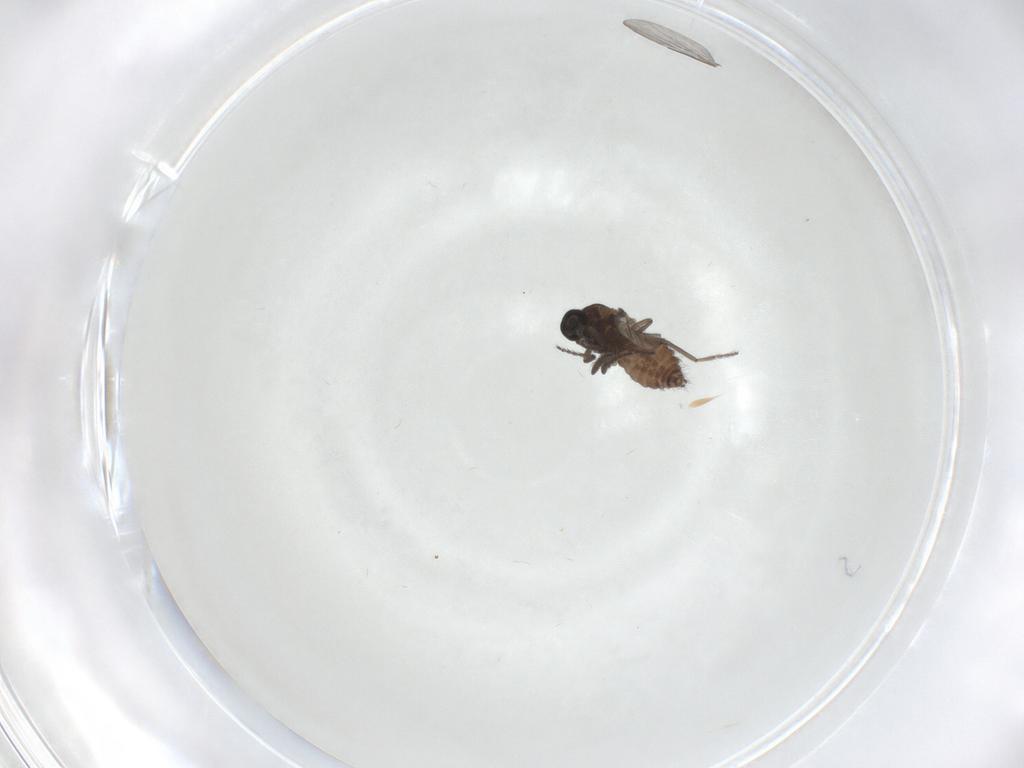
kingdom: Animalia
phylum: Arthropoda
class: Insecta
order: Diptera
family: Ceratopogonidae
